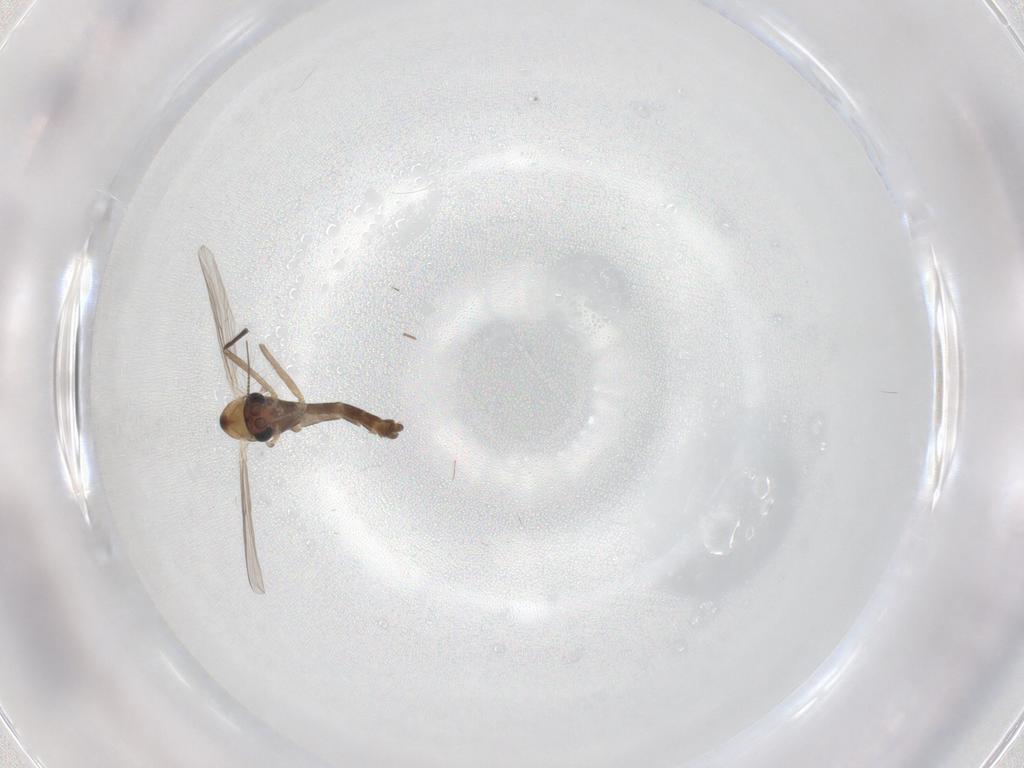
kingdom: Animalia
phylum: Arthropoda
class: Insecta
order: Diptera
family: Chironomidae
